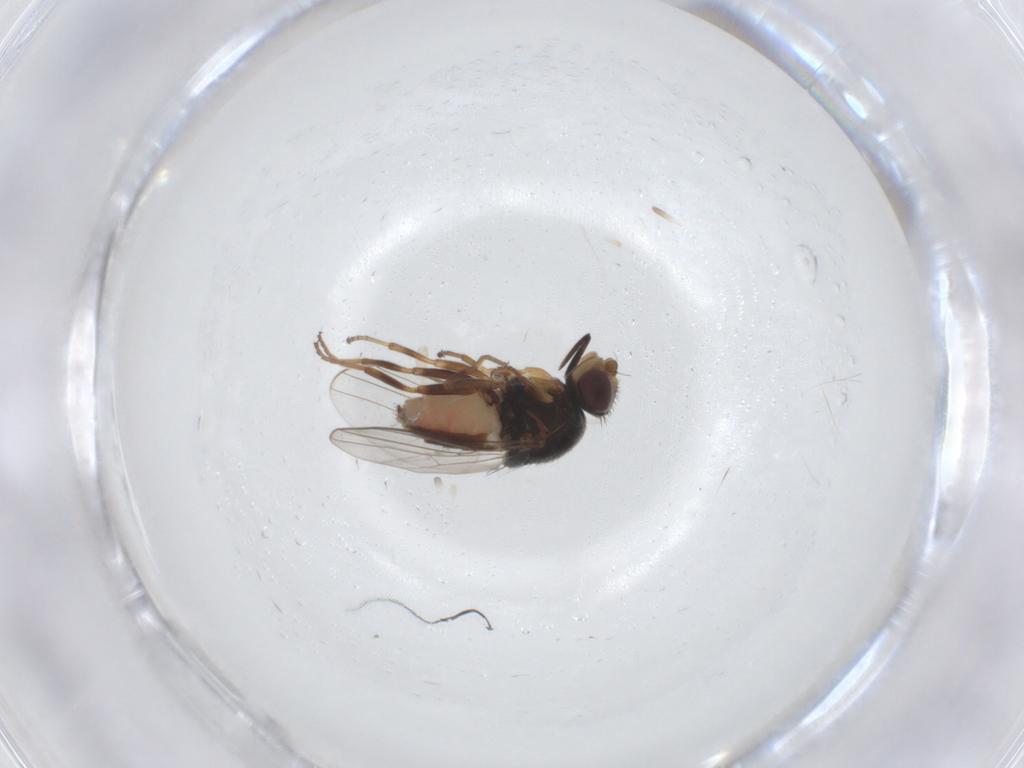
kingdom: Animalia
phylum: Arthropoda
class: Insecta
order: Diptera
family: Chloropidae
